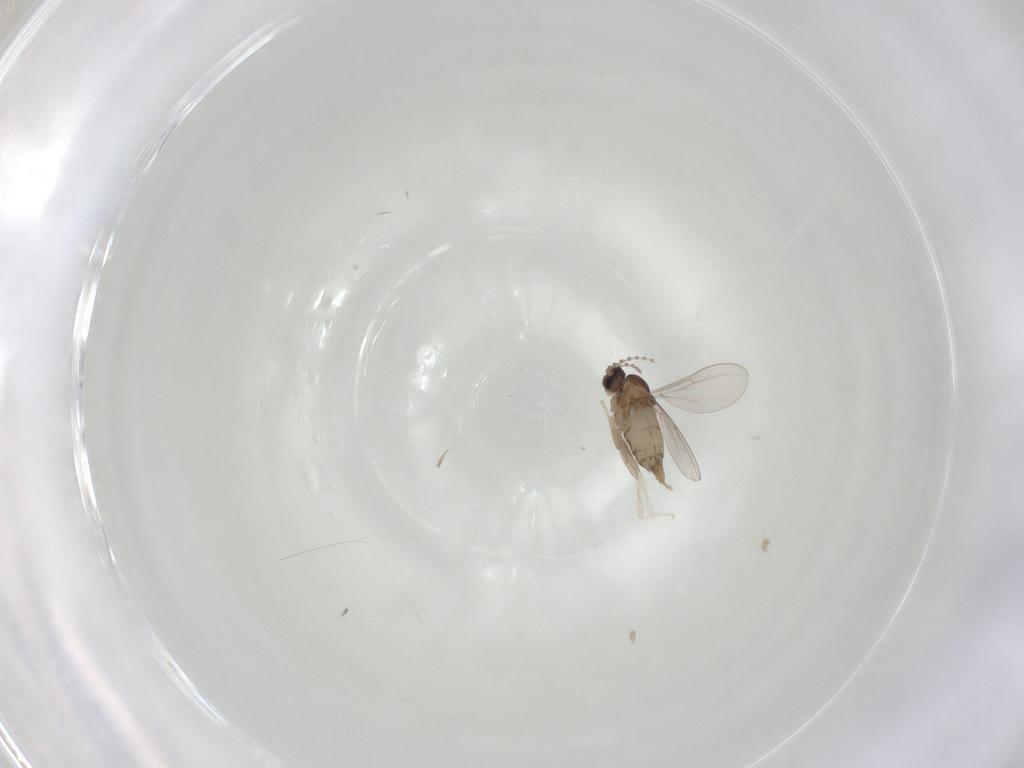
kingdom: Animalia
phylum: Arthropoda
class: Insecta
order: Diptera
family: Cecidomyiidae
